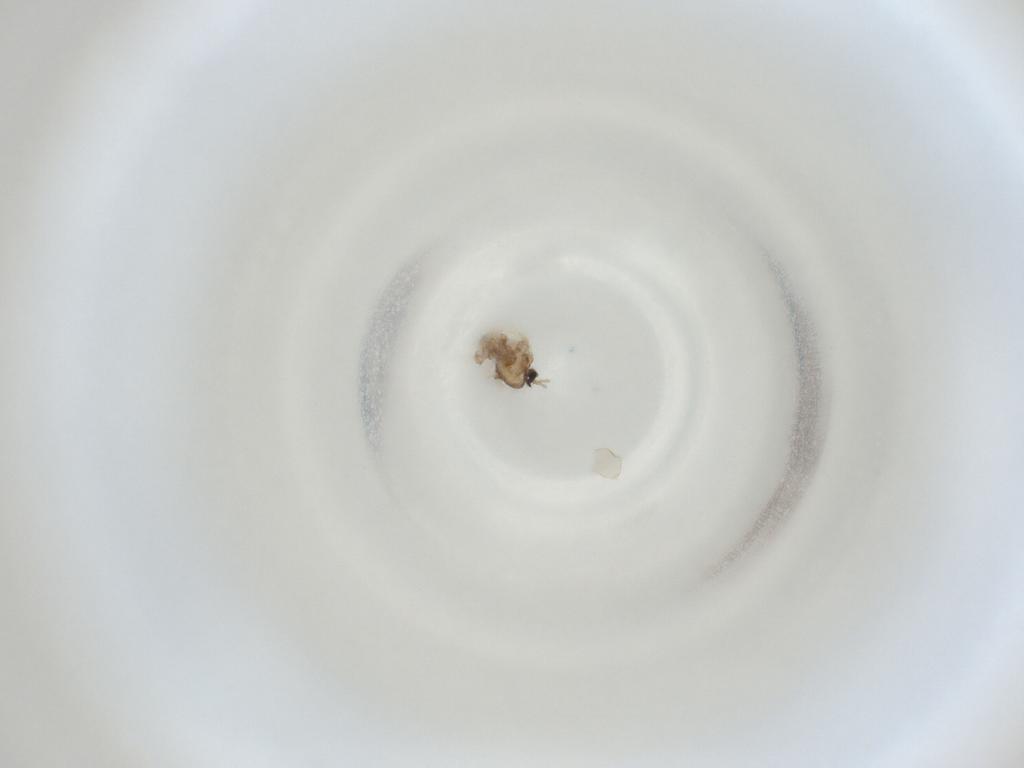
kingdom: Animalia
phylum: Arthropoda
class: Insecta
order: Diptera
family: Cecidomyiidae
